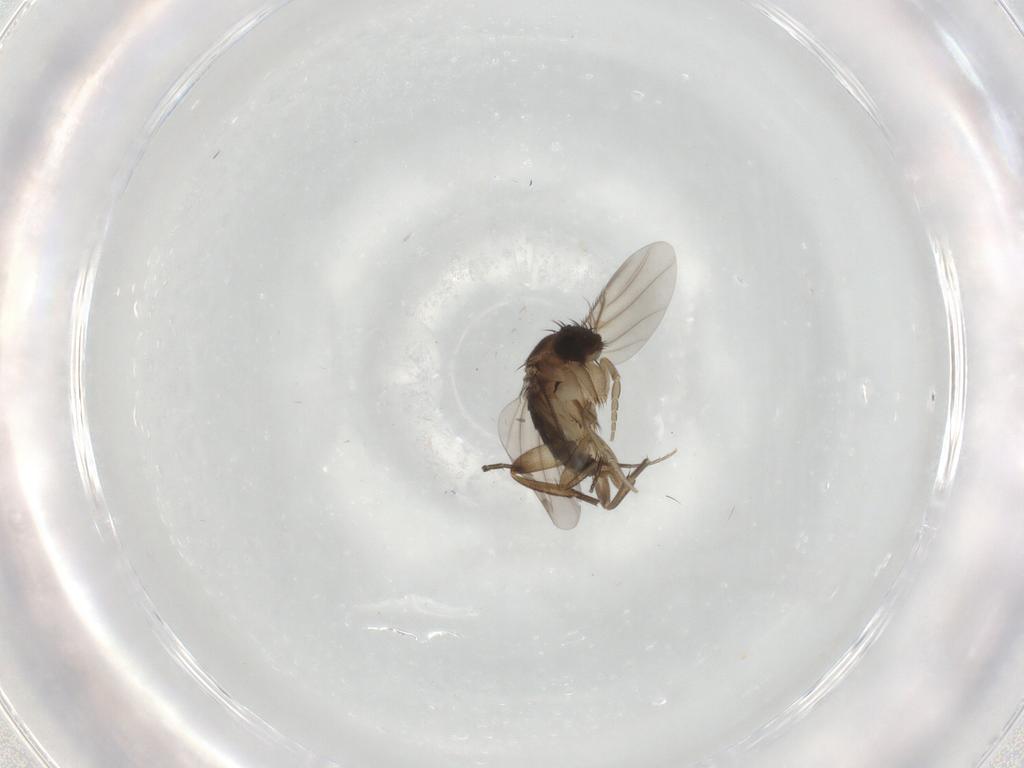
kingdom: Animalia
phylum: Arthropoda
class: Insecta
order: Diptera
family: Phoridae
